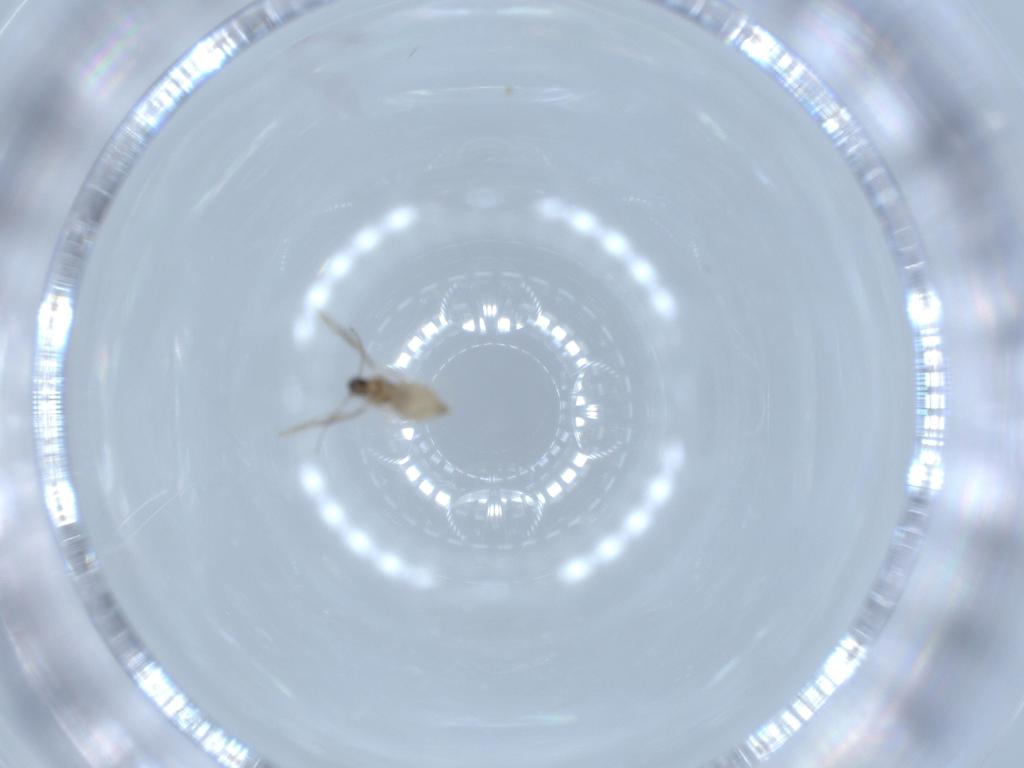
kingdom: Animalia
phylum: Arthropoda
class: Insecta
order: Diptera
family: Cecidomyiidae
